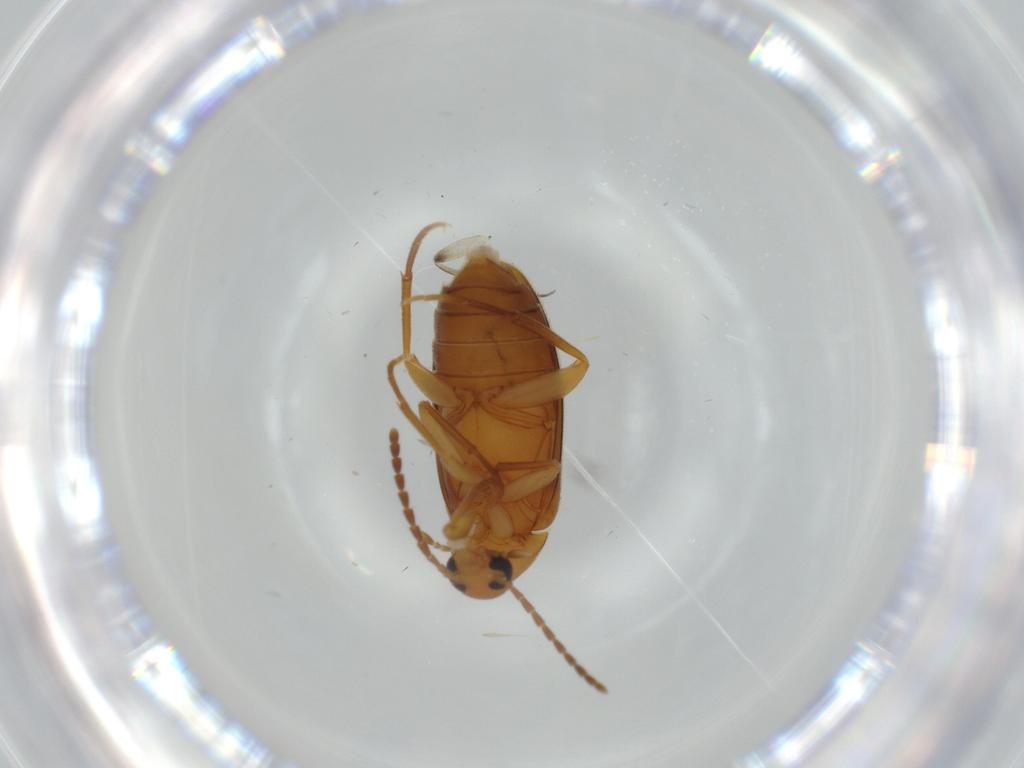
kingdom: Animalia
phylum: Arthropoda
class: Insecta
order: Coleoptera
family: Scraptiidae
